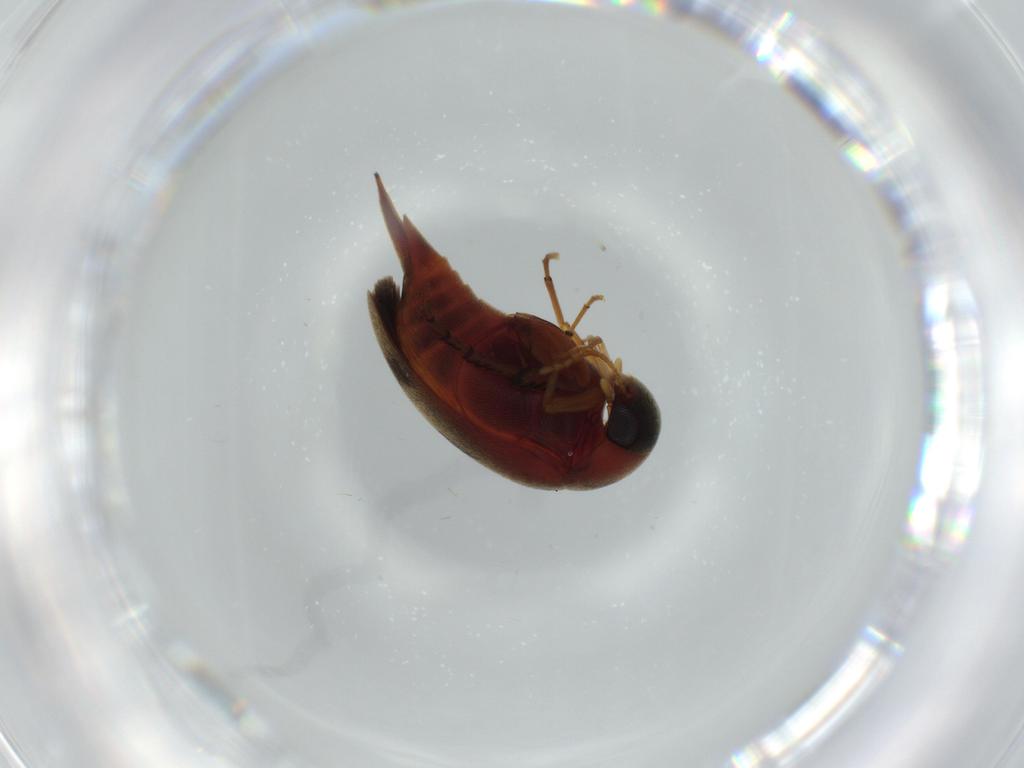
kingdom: Animalia
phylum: Arthropoda
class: Insecta
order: Coleoptera
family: Mordellidae
